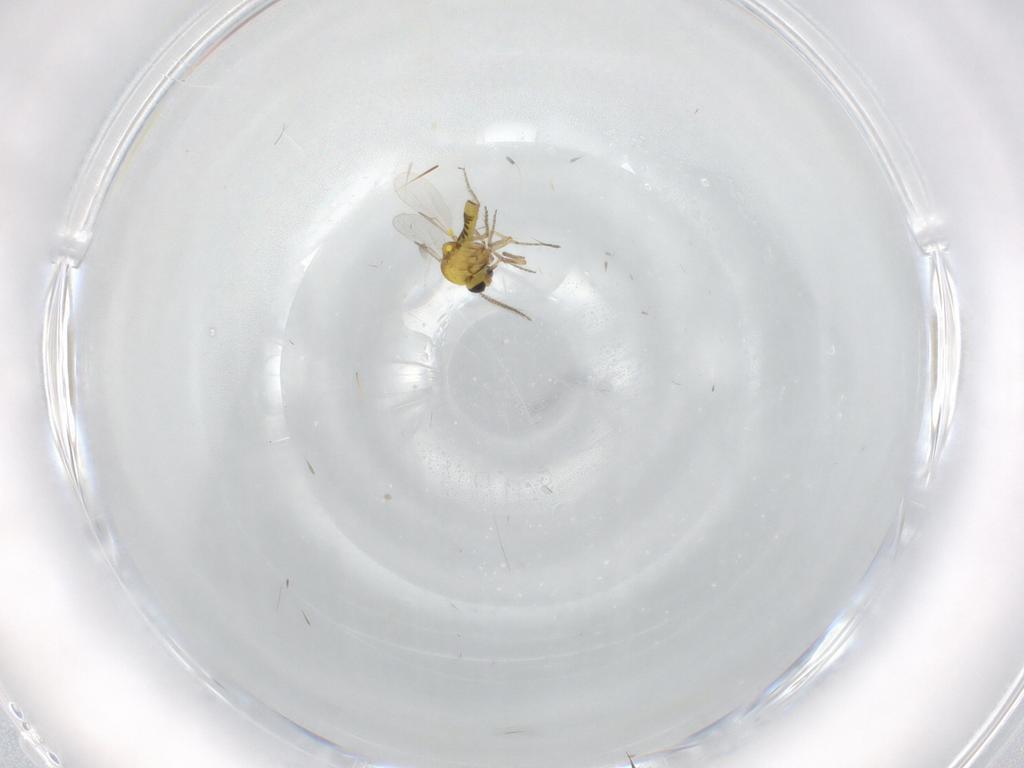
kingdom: Animalia
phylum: Arthropoda
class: Insecta
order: Diptera
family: Ceratopogonidae
